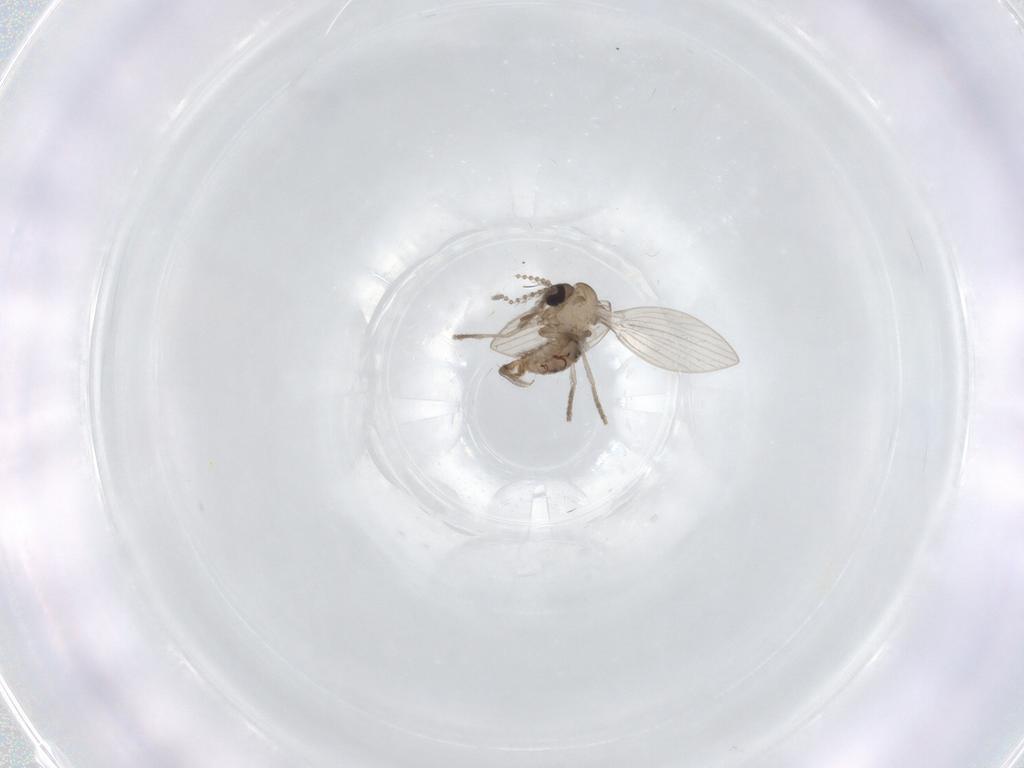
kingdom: Animalia
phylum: Arthropoda
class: Insecta
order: Diptera
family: Psychodidae
